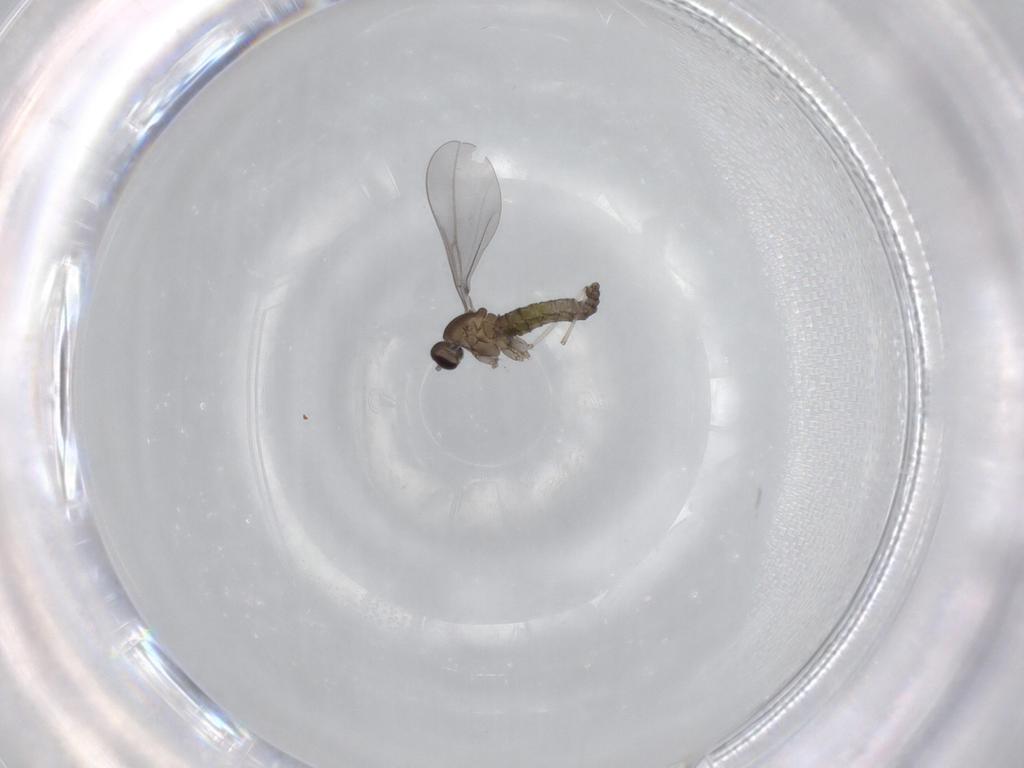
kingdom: Animalia
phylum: Arthropoda
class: Insecta
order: Diptera
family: Cecidomyiidae
